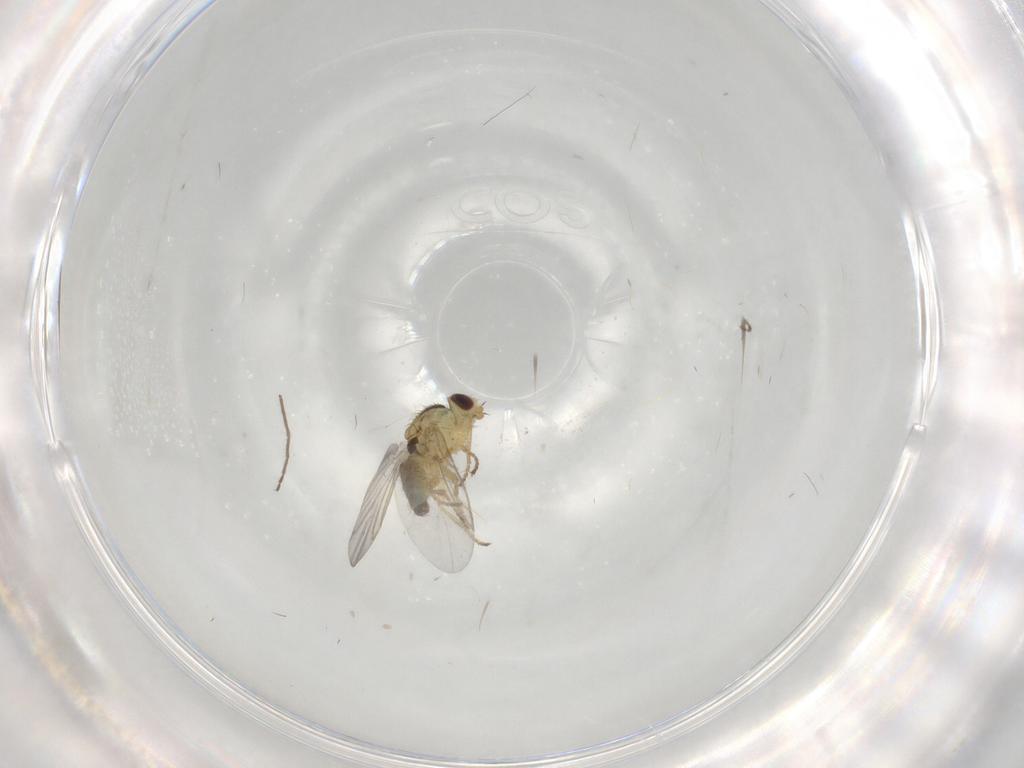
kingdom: Animalia
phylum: Arthropoda
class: Insecta
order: Diptera
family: Agromyzidae
